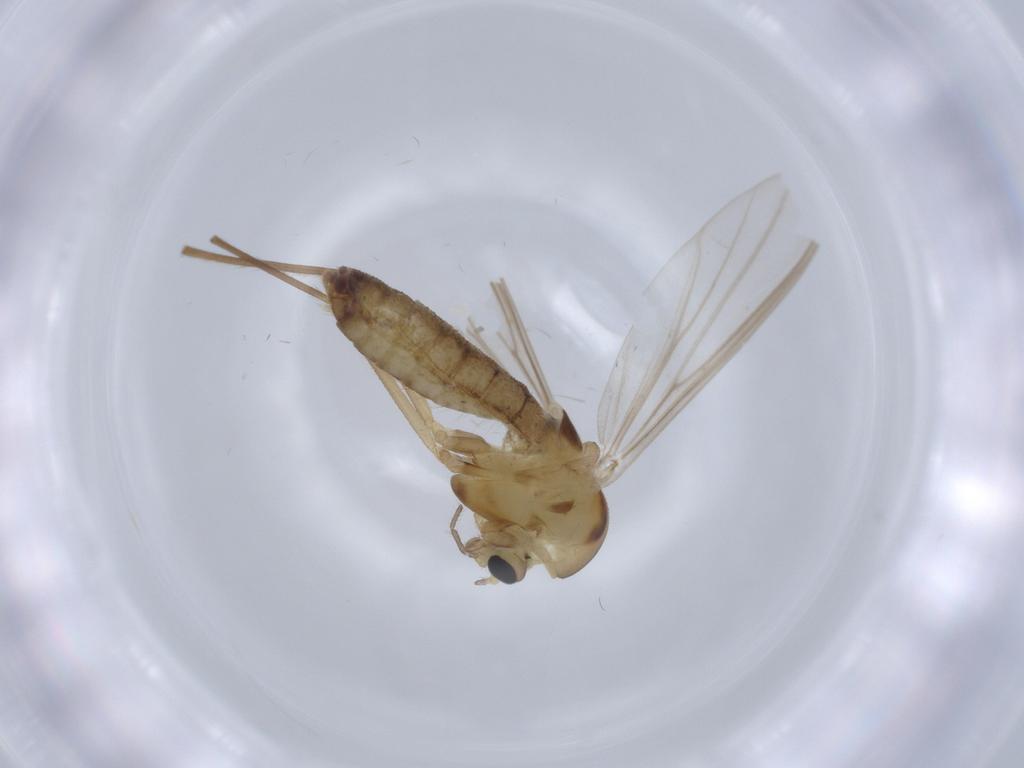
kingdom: Animalia
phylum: Arthropoda
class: Insecta
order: Diptera
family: Chironomidae
